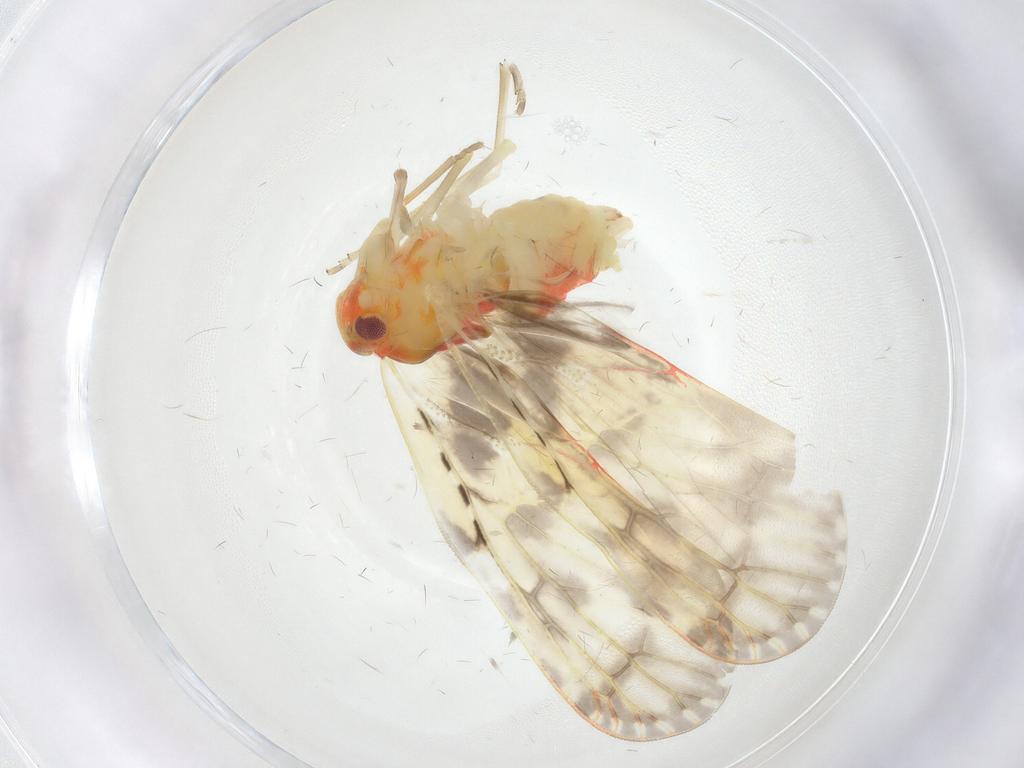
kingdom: Animalia
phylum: Arthropoda
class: Insecta
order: Hemiptera
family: Derbidae
